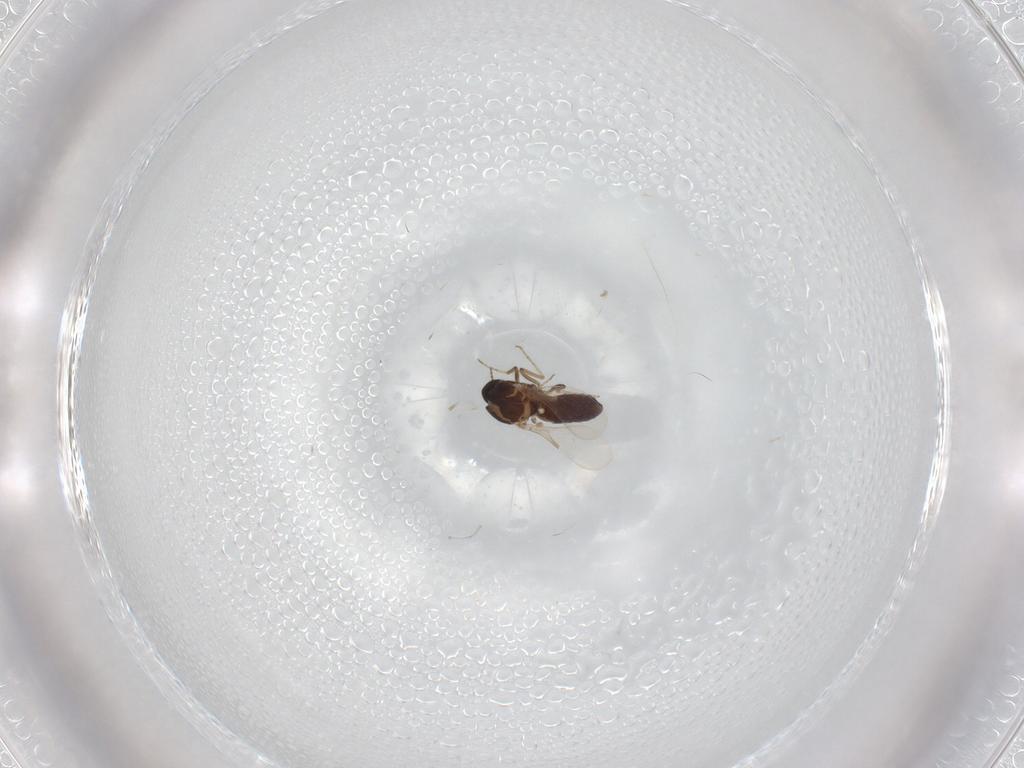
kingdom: Animalia
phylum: Arthropoda
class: Insecta
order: Diptera
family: Ceratopogonidae
